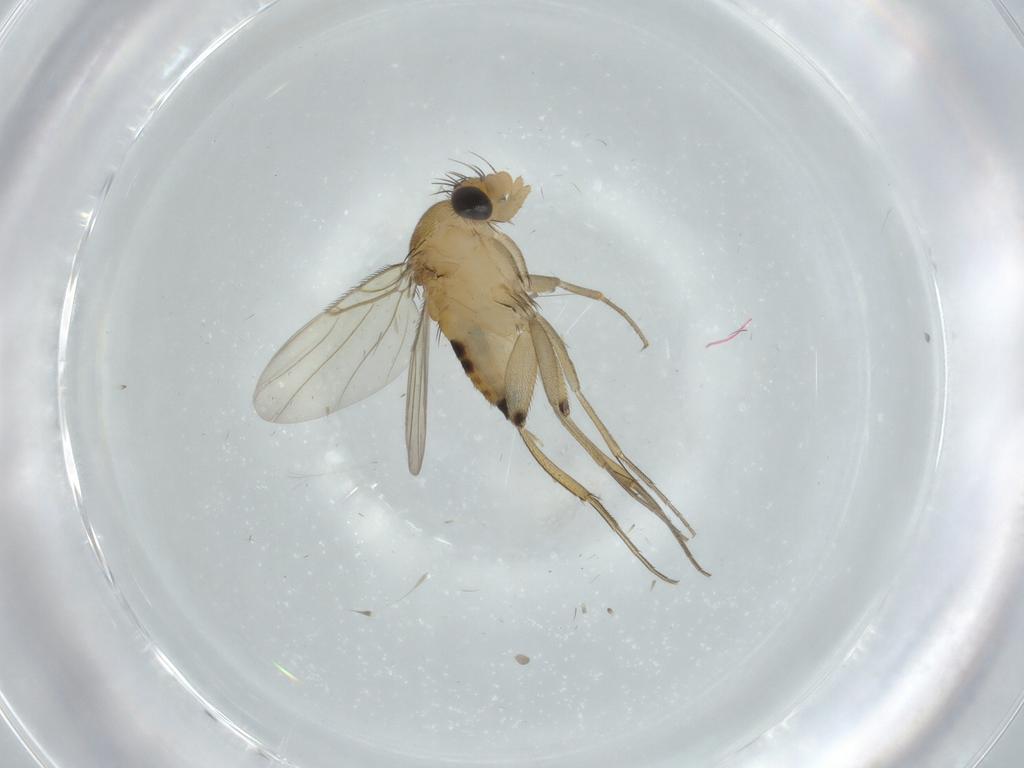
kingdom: Animalia
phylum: Arthropoda
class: Insecta
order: Diptera
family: Phoridae
